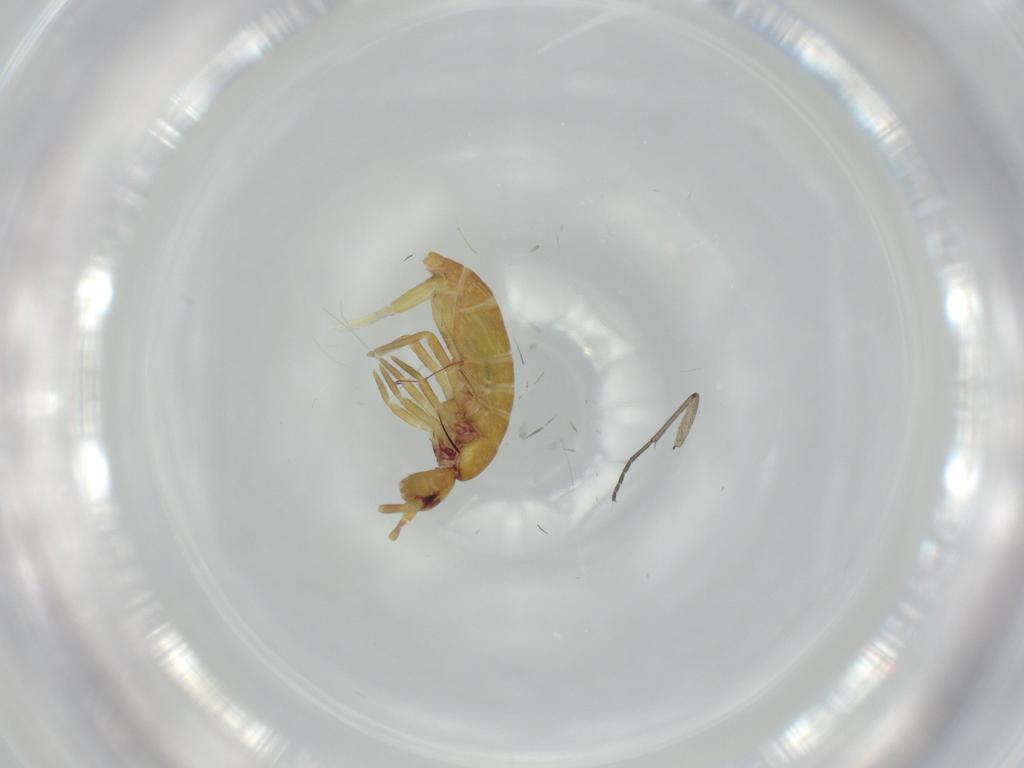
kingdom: Animalia
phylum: Arthropoda
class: Collembola
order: Entomobryomorpha
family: Tomoceridae
